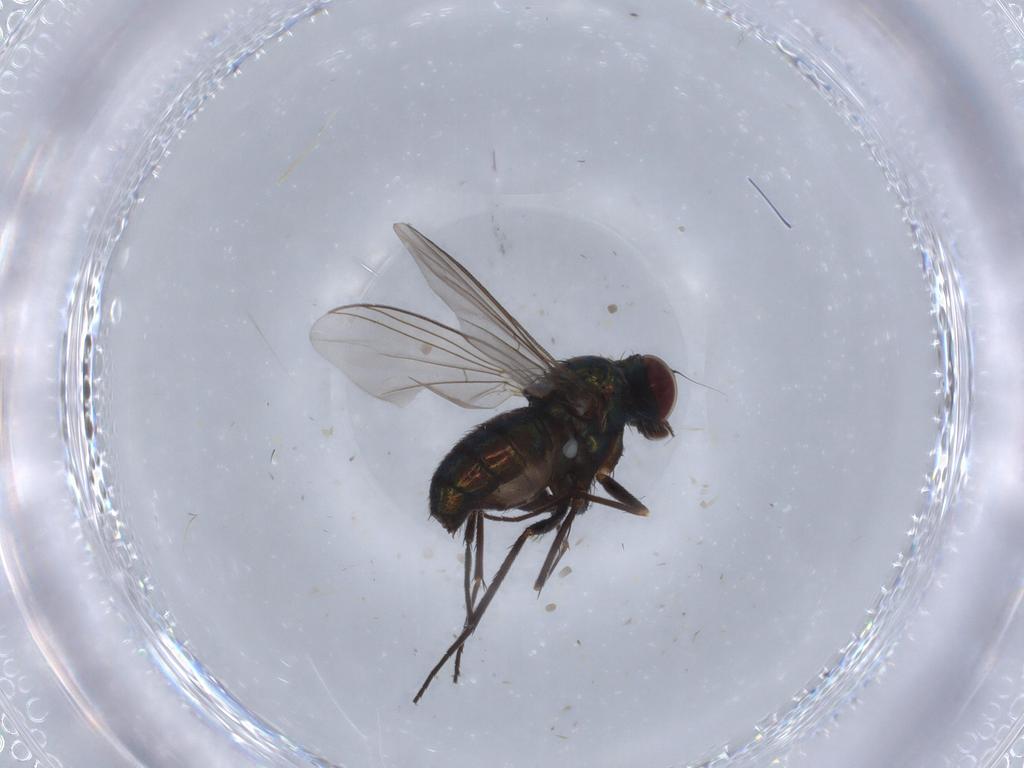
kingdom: Animalia
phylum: Arthropoda
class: Insecta
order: Diptera
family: Dolichopodidae
